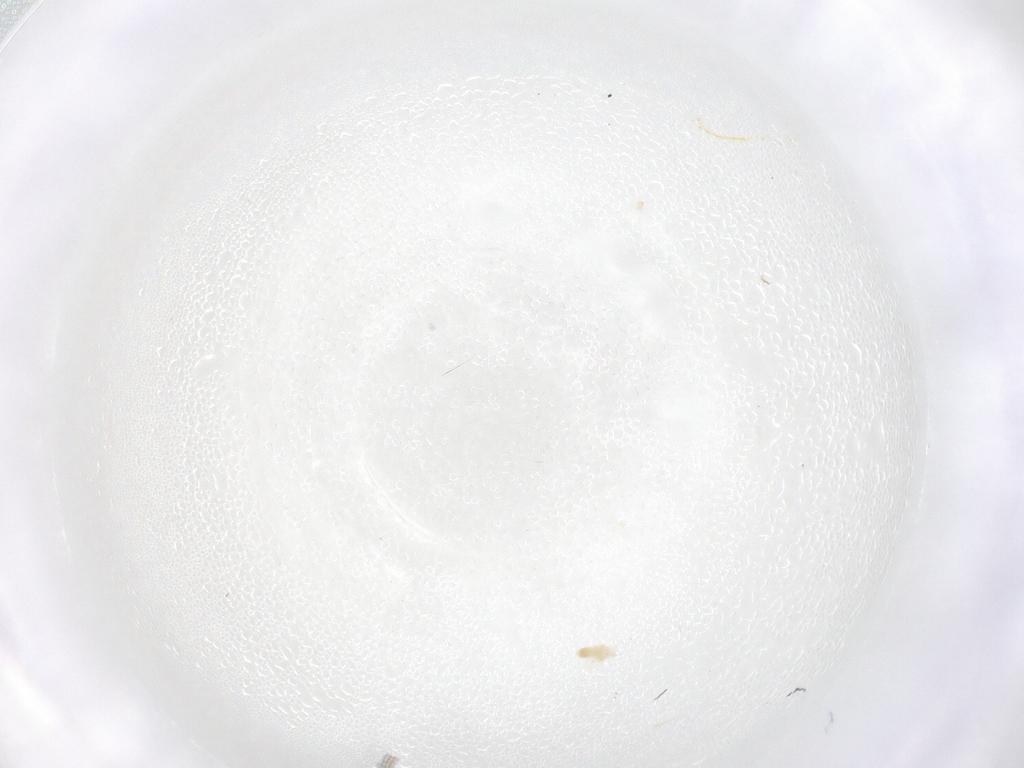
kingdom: Animalia
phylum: Arthropoda
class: Arachnida
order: Trombidiformes
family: Eupodidae
